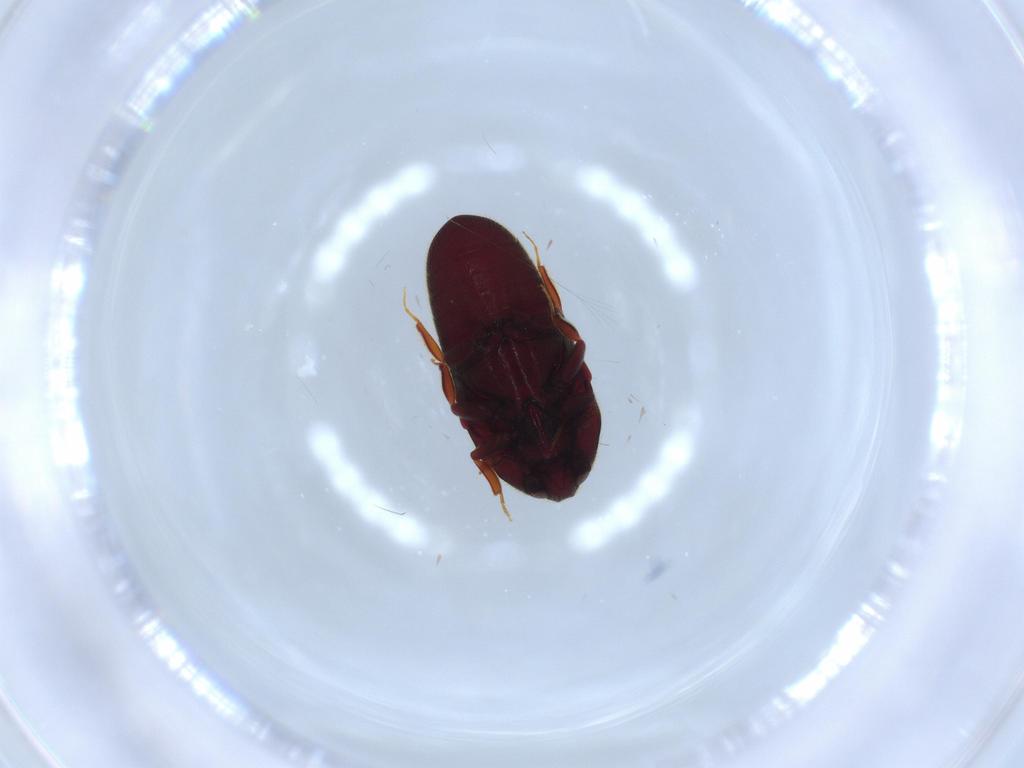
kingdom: Animalia
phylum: Arthropoda
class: Insecta
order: Coleoptera
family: Throscidae
